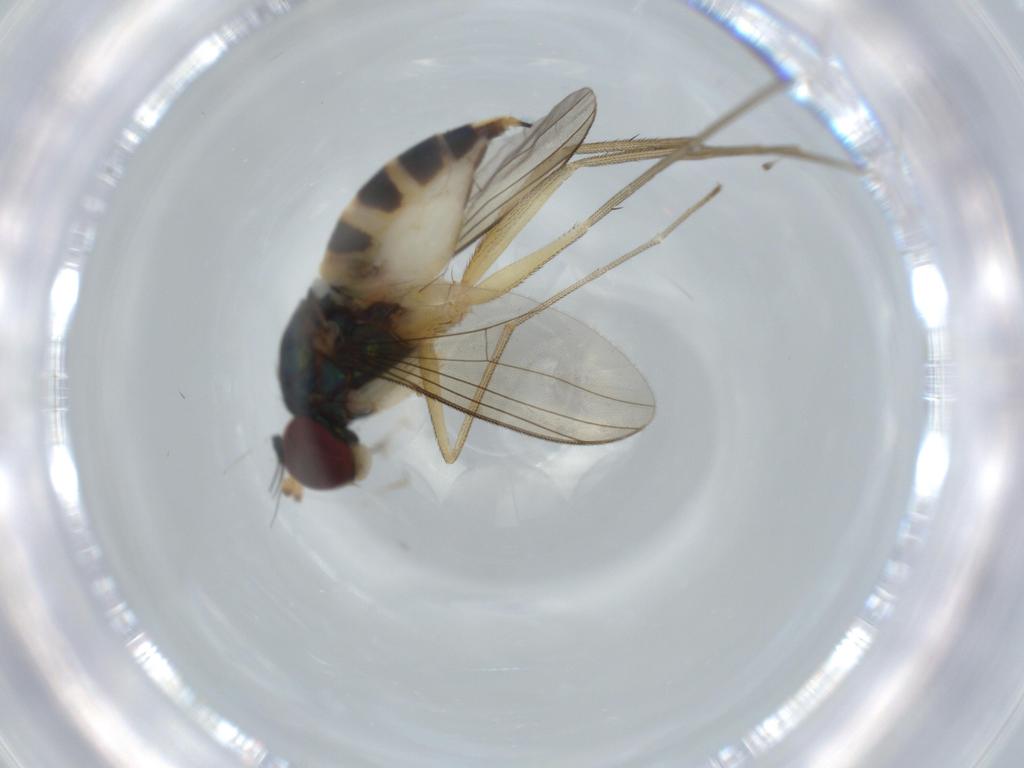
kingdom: Animalia
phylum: Arthropoda
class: Insecta
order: Diptera
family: Dolichopodidae
